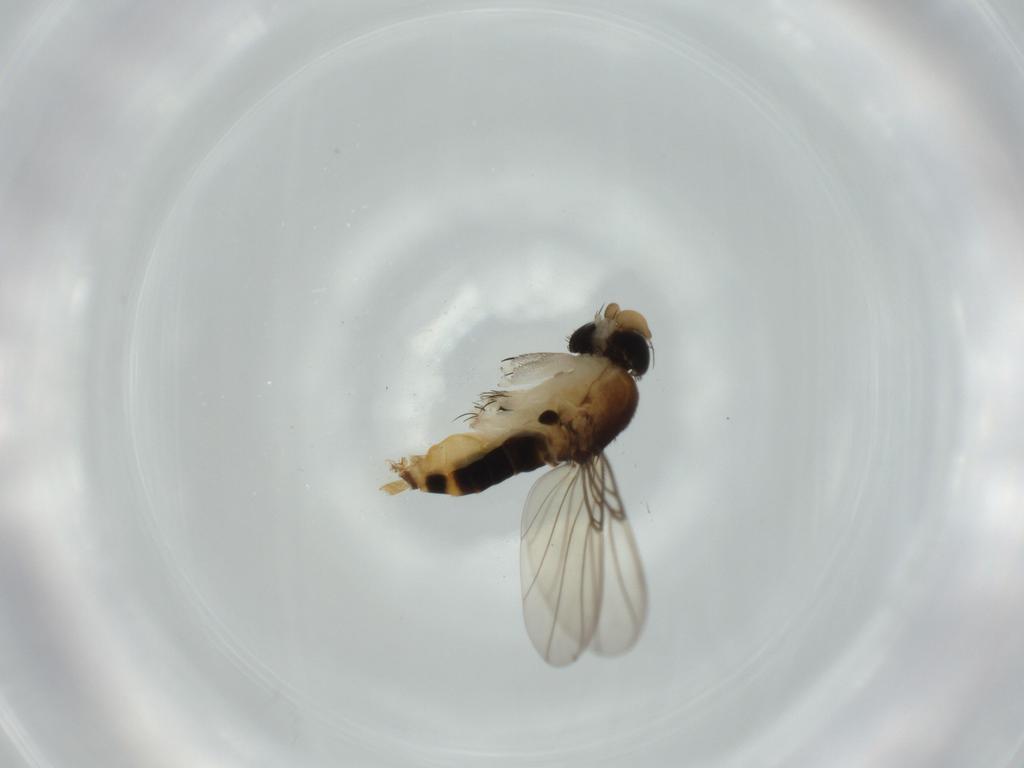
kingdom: Animalia
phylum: Arthropoda
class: Insecta
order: Diptera
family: Phoridae
